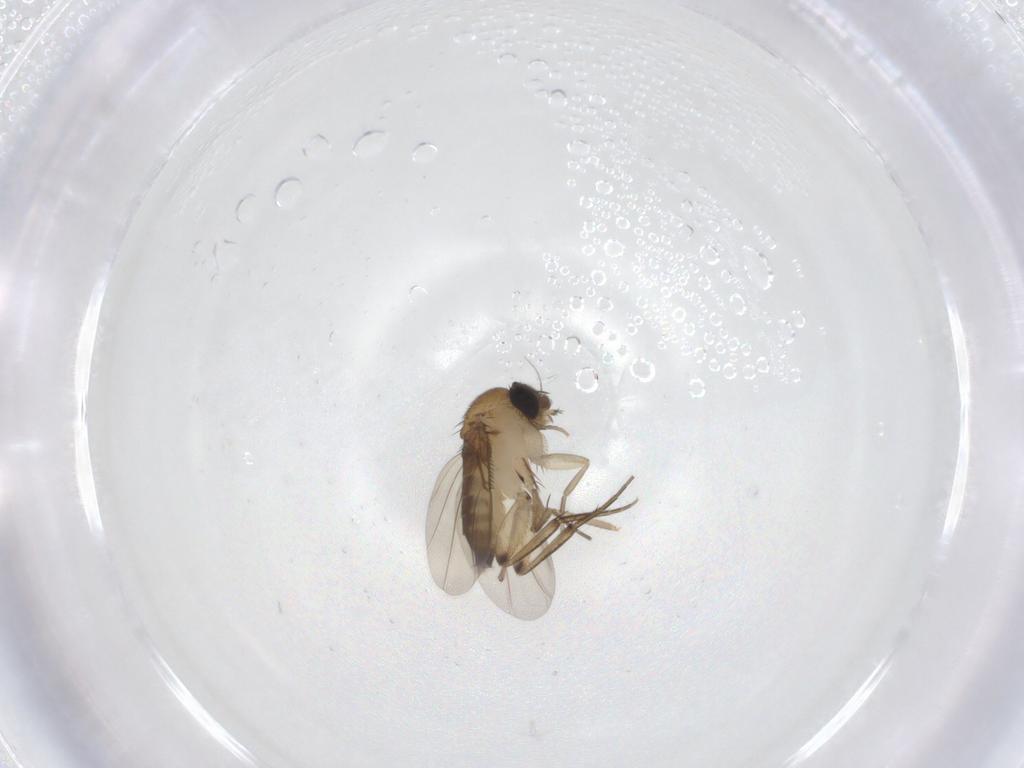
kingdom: Animalia
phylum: Arthropoda
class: Insecta
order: Diptera
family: Phoridae
